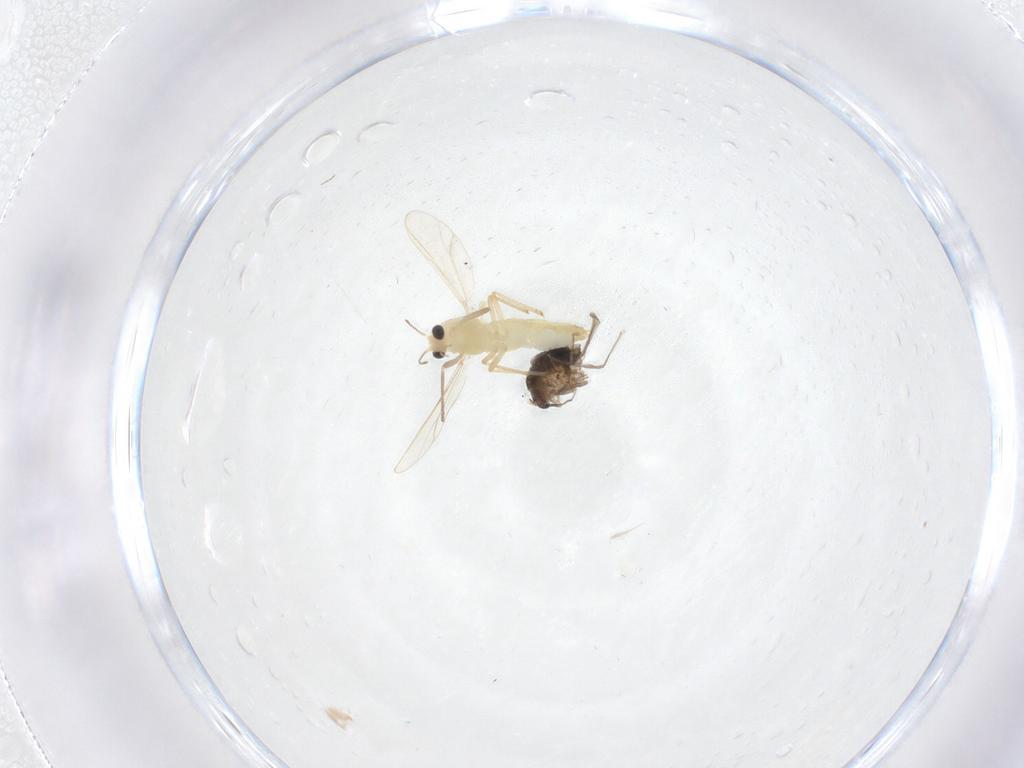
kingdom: Animalia
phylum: Arthropoda
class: Insecta
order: Diptera
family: Chironomidae
